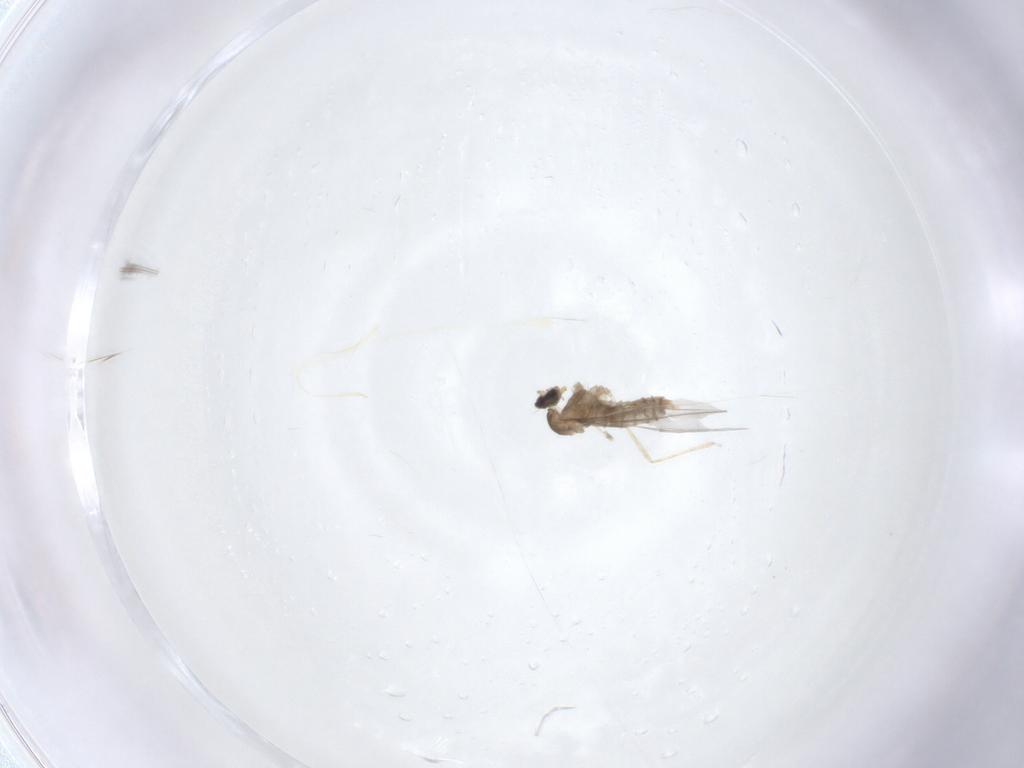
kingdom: Animalia
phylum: Arthropoda
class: Insecta
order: Diptera
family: Cecidomyiidae
